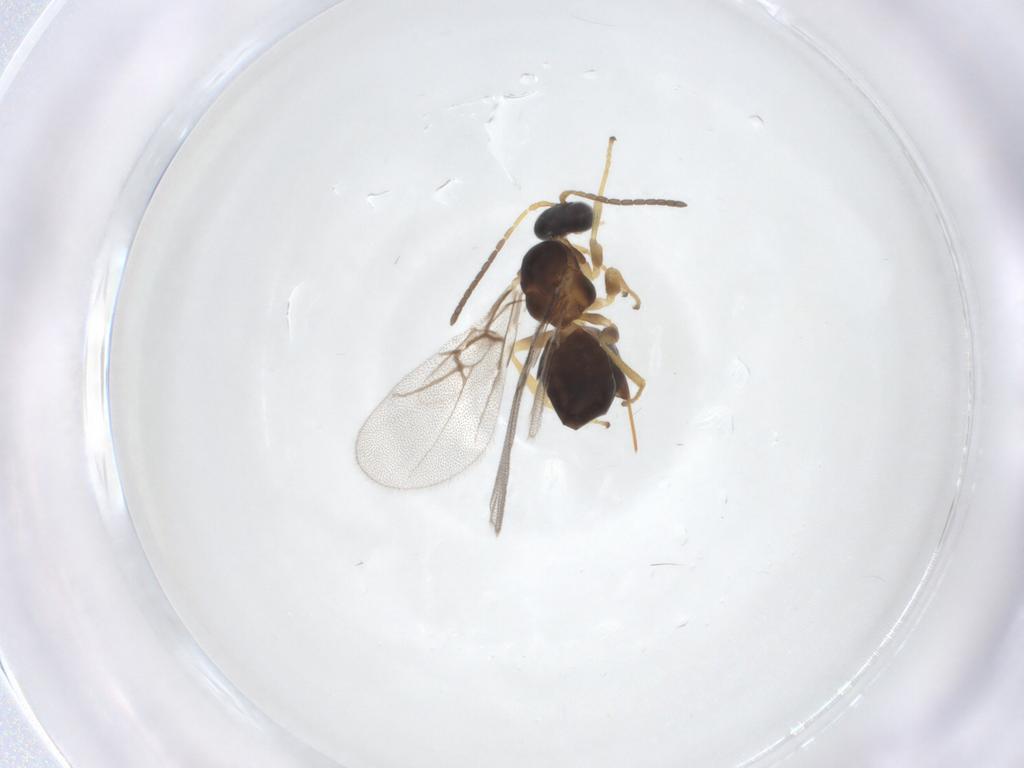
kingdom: Animalia
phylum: Arthropoda
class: Insecta
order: Hymenoptera
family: Cynipidae
